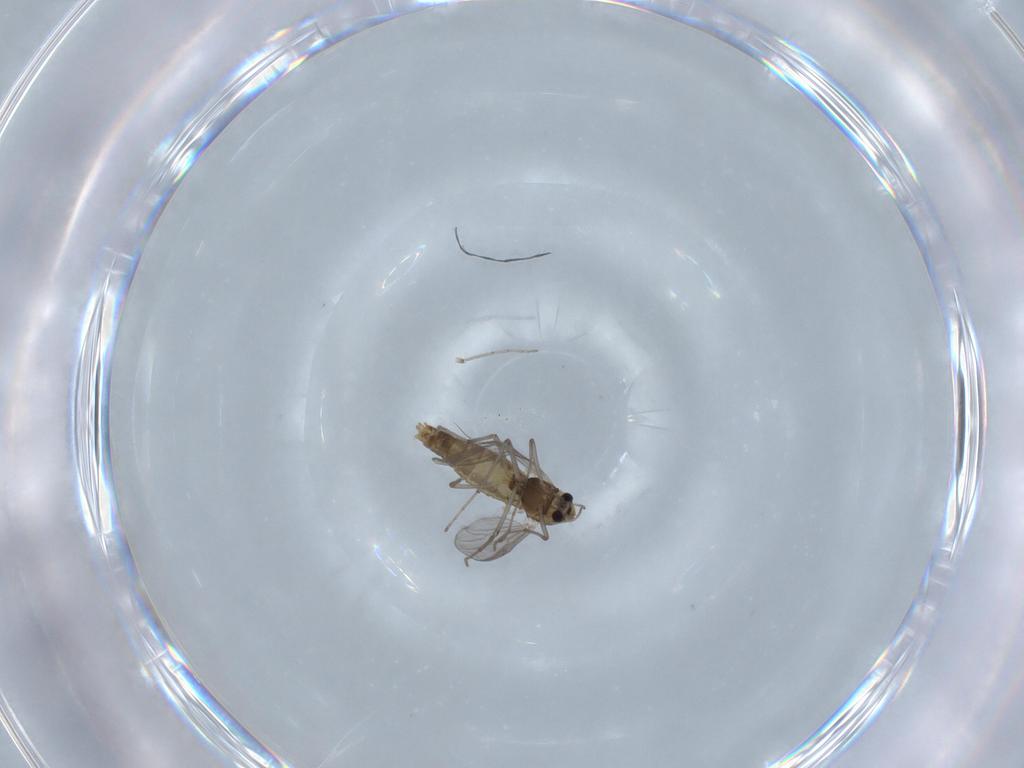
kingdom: Animalia
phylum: Arthropoda
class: Insecta
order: Diptera
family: Chironomidae
